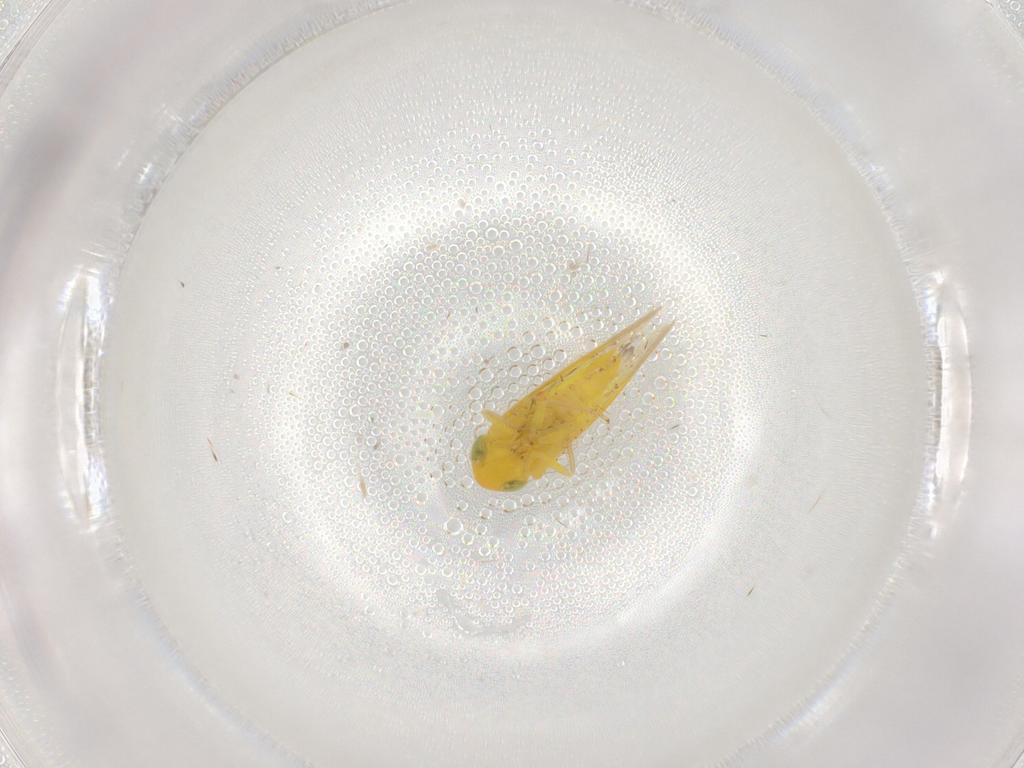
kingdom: Animalia
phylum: Arthropoda
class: Insecta
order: Hemiptera
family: Cicadellidae
